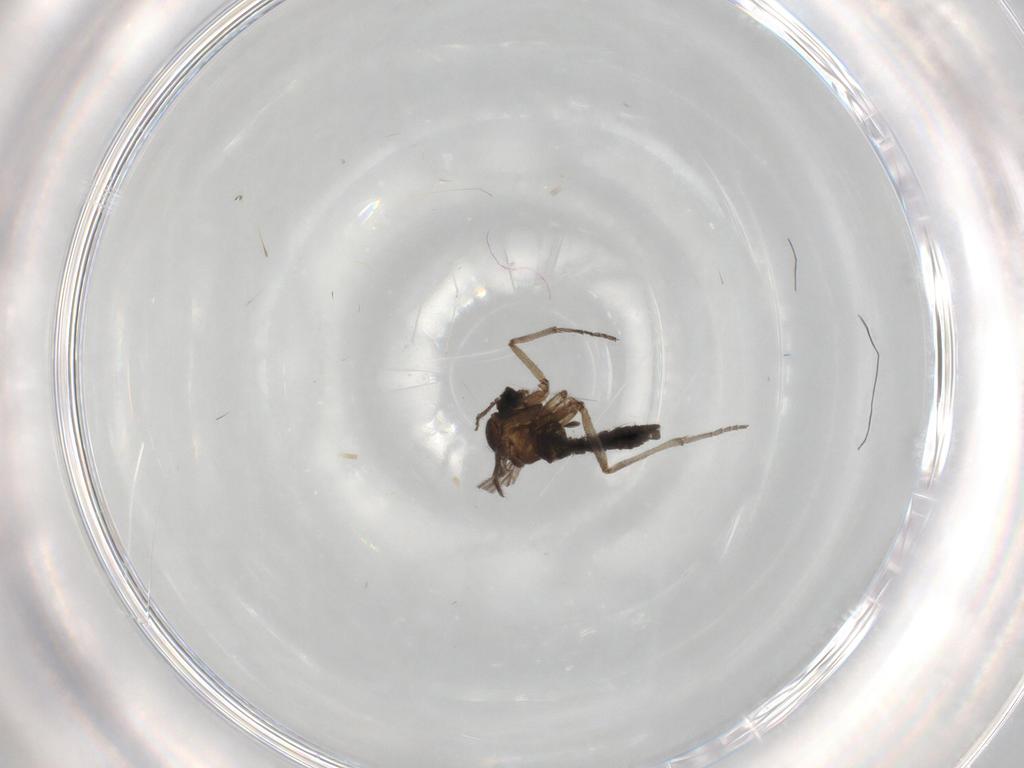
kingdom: Animalia
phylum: Arthropoda
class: Insecta
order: Diptera
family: Sciaridae
